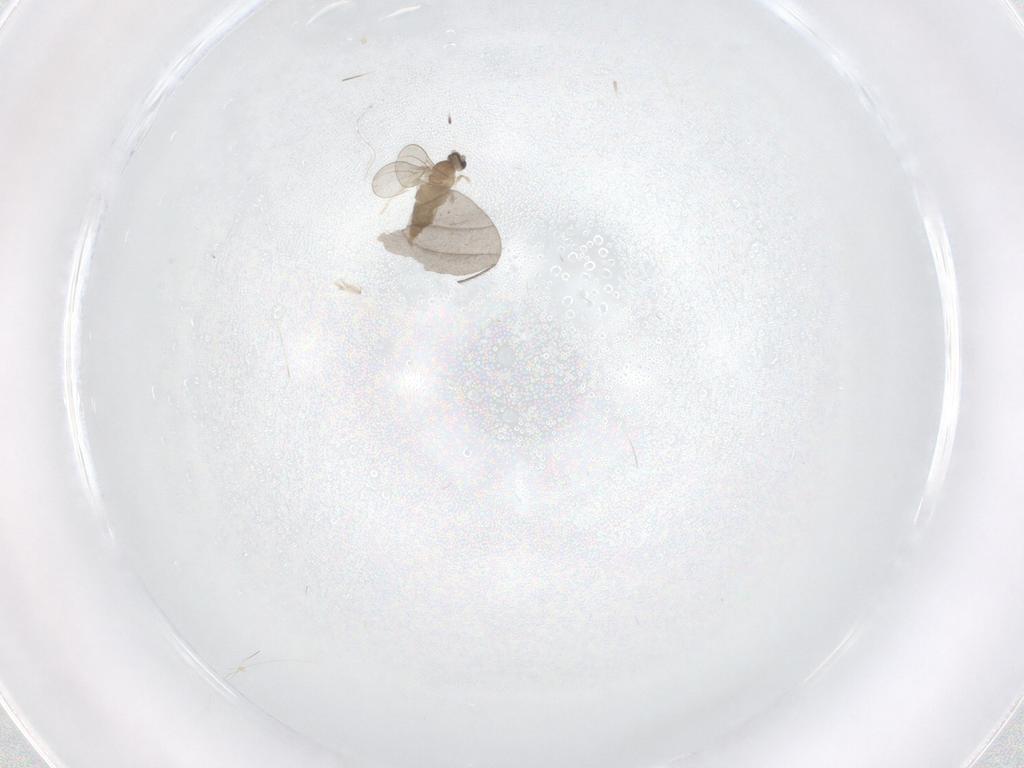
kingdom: Animalia
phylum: Arthropoda
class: Insecta
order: Diptera
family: Cecidomyiidae
